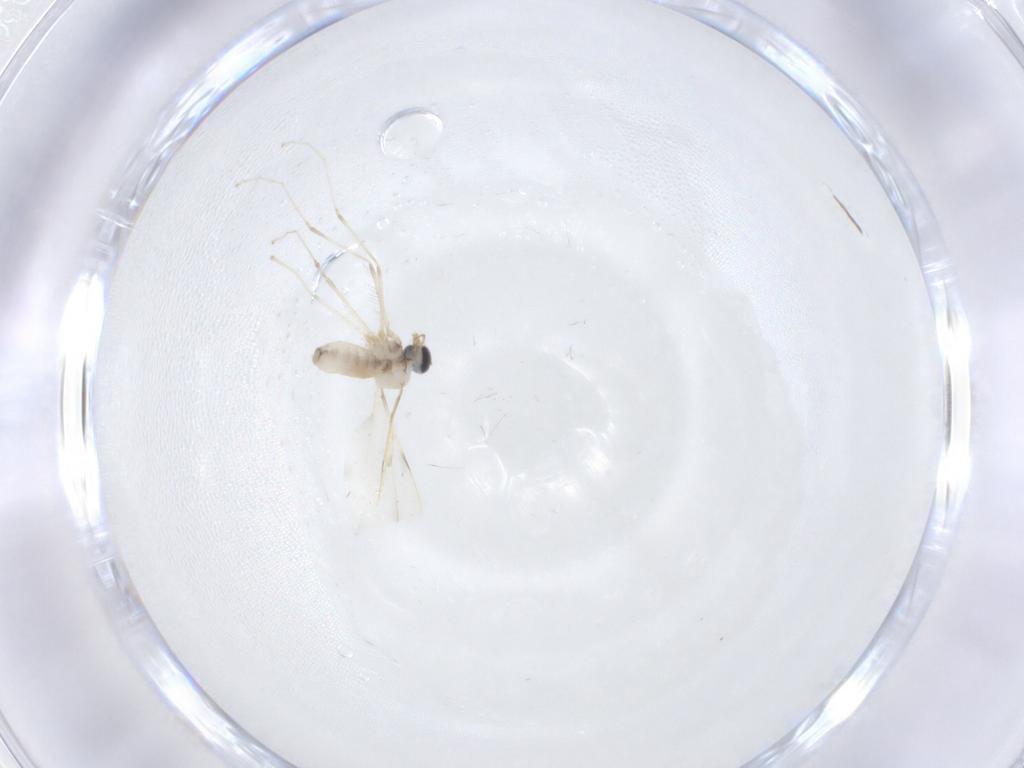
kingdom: Animalia
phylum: Arthropoda
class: Insecta
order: Diptera
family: Sphaeroceridae
